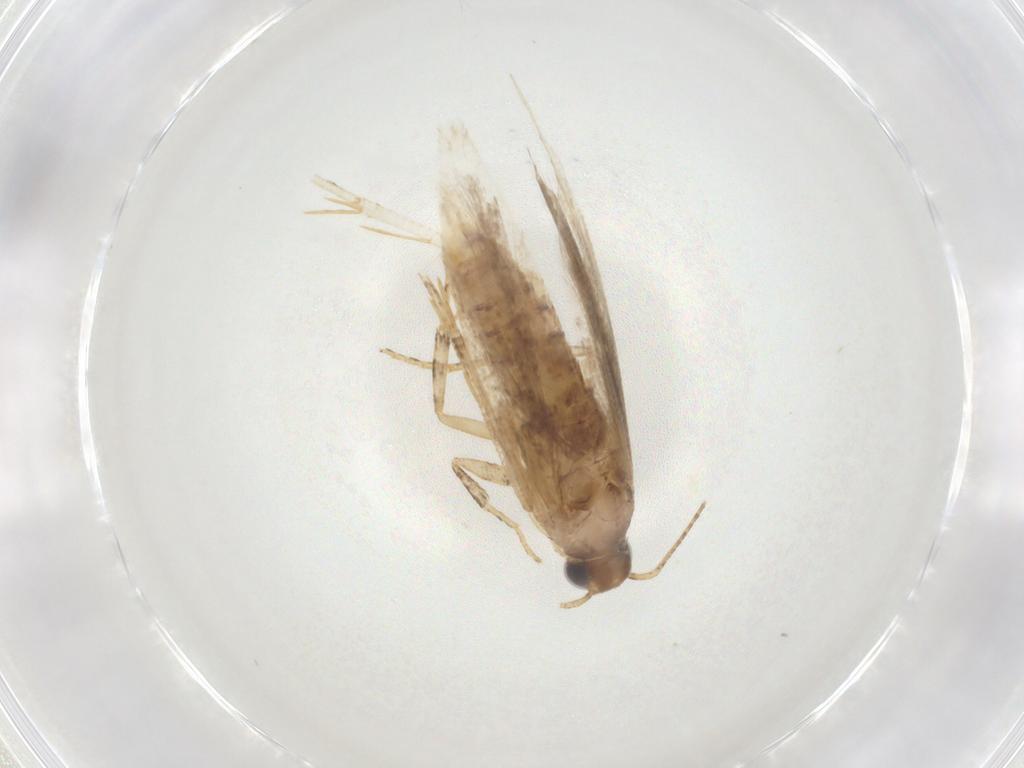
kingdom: Animalia
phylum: Arthropoda
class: Insecta
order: Lepidoptera
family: Gelechiidae
